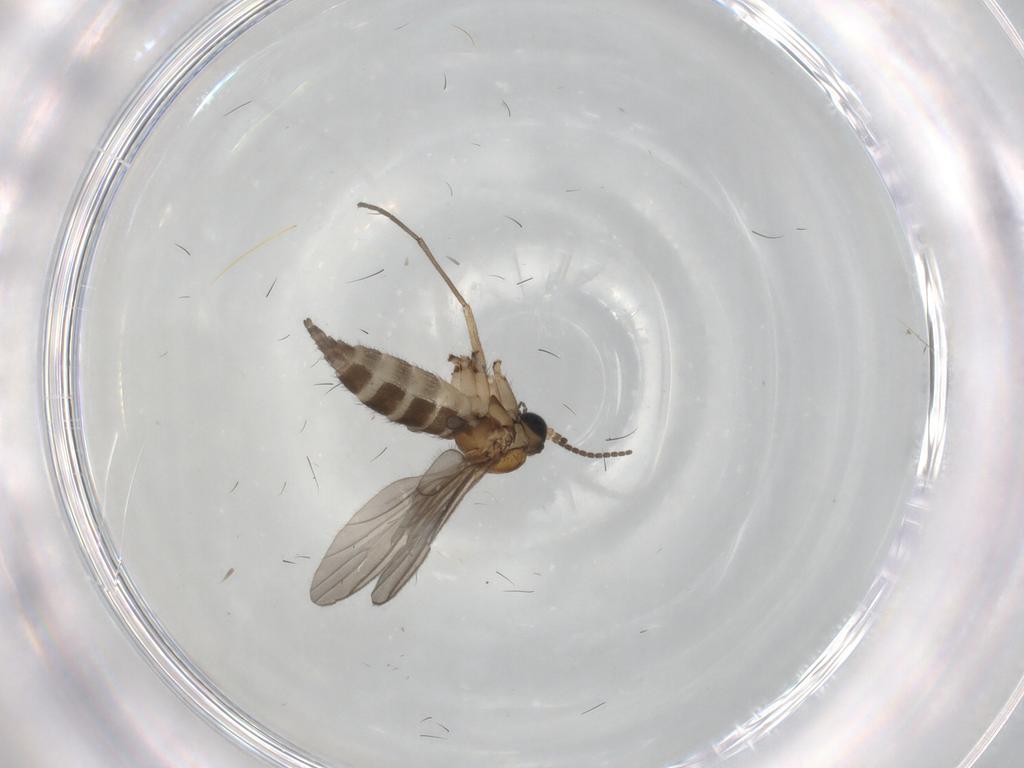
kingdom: Animalia
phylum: Arthropoda
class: Insecta
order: Diptera
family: Sciaridae
